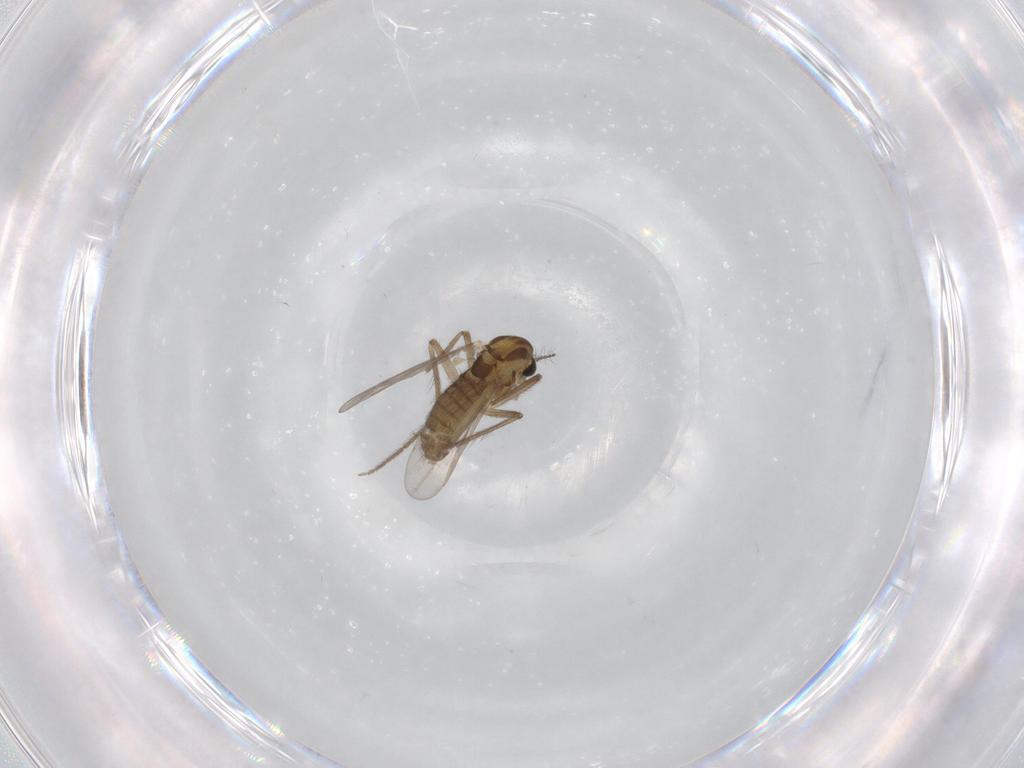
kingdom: Animalia
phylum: Arthropoda
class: Insecta
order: Diptera
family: Chironomidae
